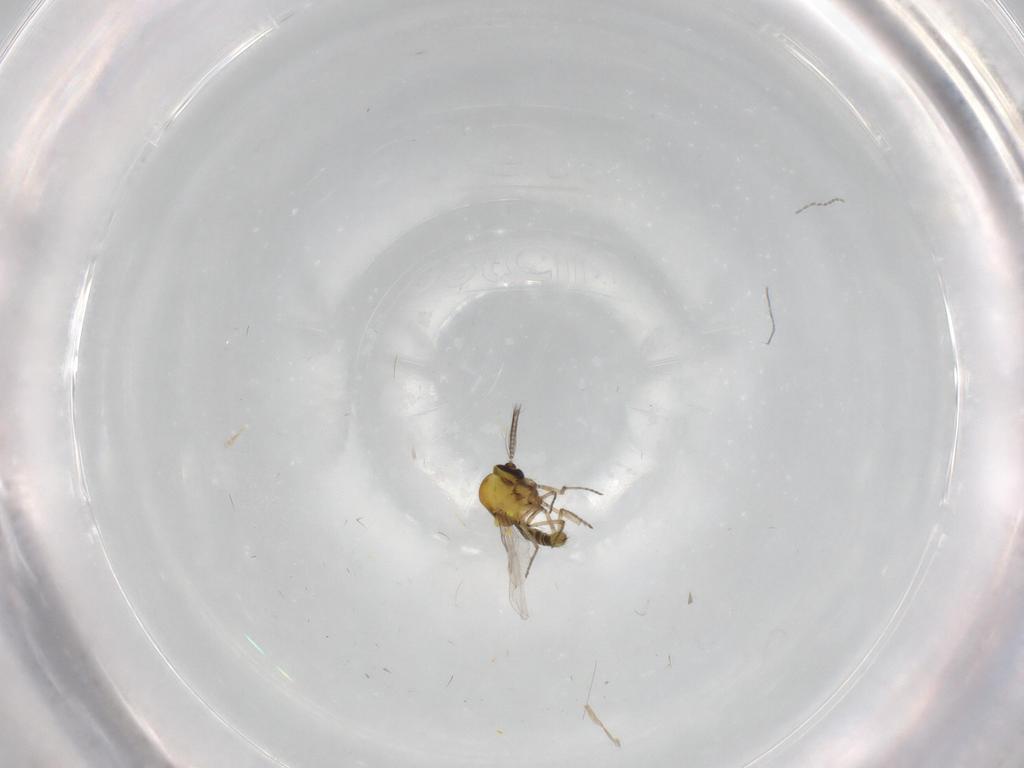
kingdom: Animalia
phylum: Arthropoda
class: Insecta
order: Diptera
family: Ceratopogonidae
